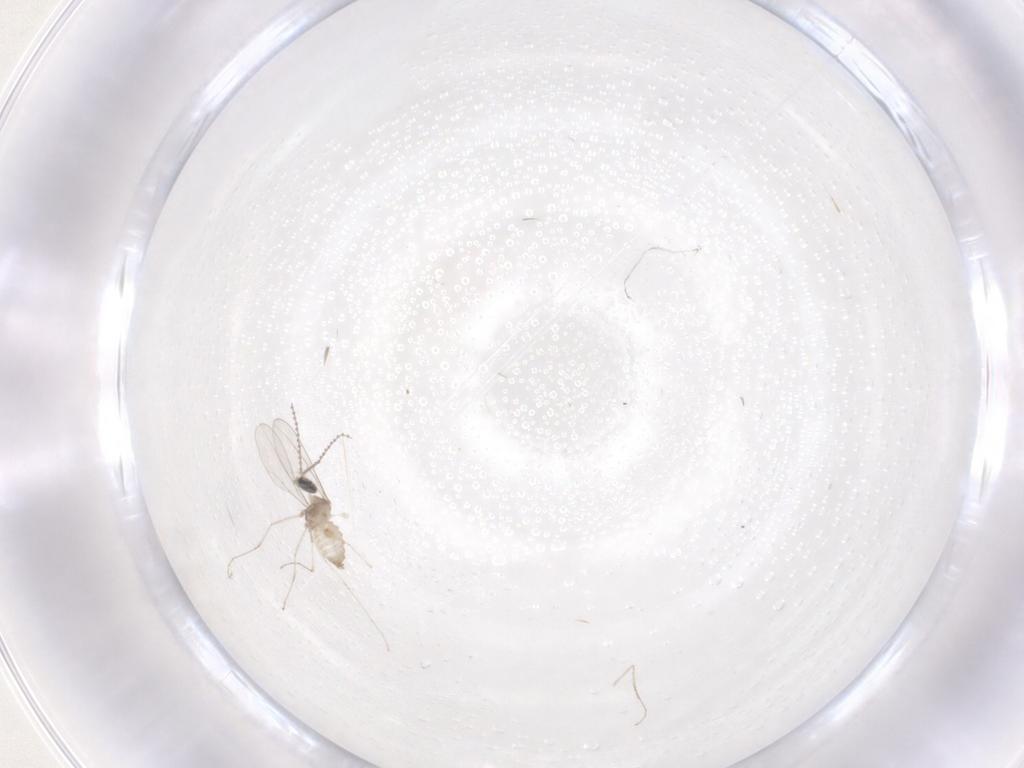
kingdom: Animalia
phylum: Arthropoda
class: Insecta
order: Diptera
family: Cecidomyiidae
